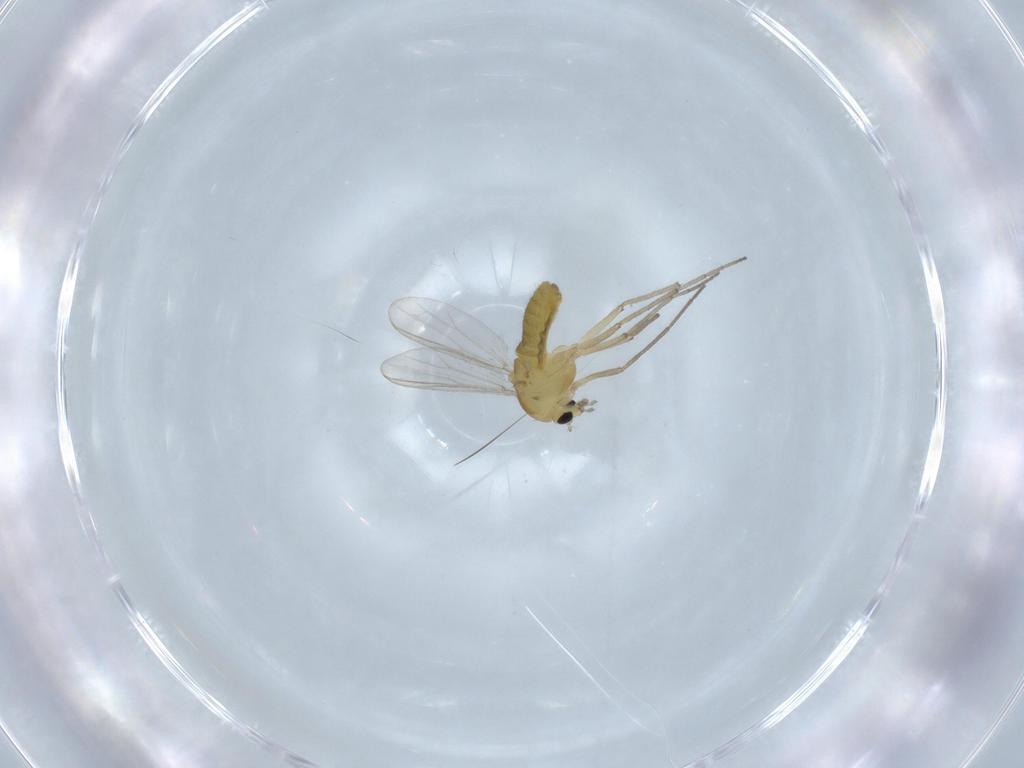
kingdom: Animalia
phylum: Arthropoda
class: Insecta
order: Diptera
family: Chironomidae
